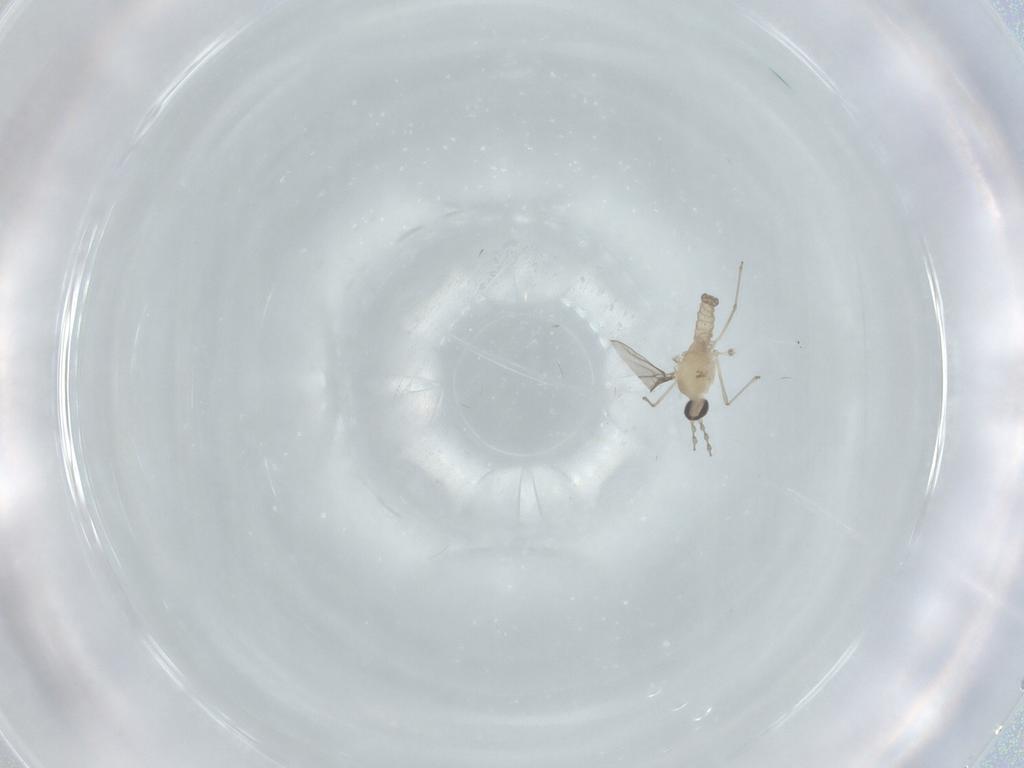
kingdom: Animalia
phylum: Arthropoda
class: Insecta
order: Diptera
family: Cecidomyiidae
